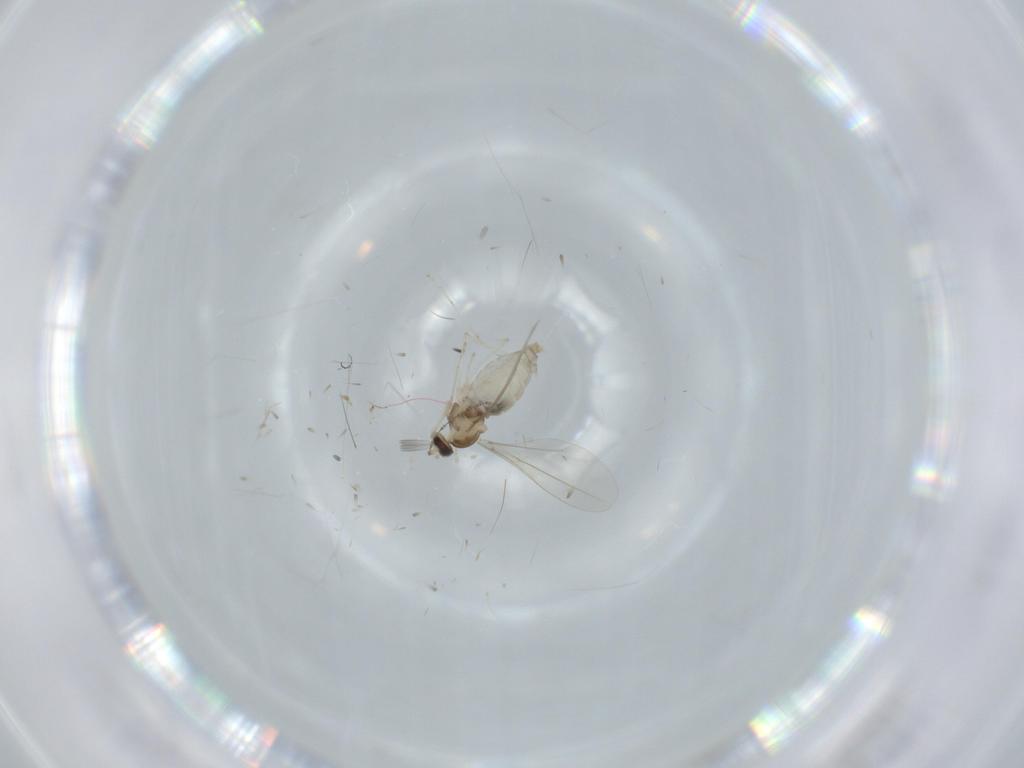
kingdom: Animalia
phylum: Arthropoda
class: Insecta
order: Diptera
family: Cecidomyiidae
